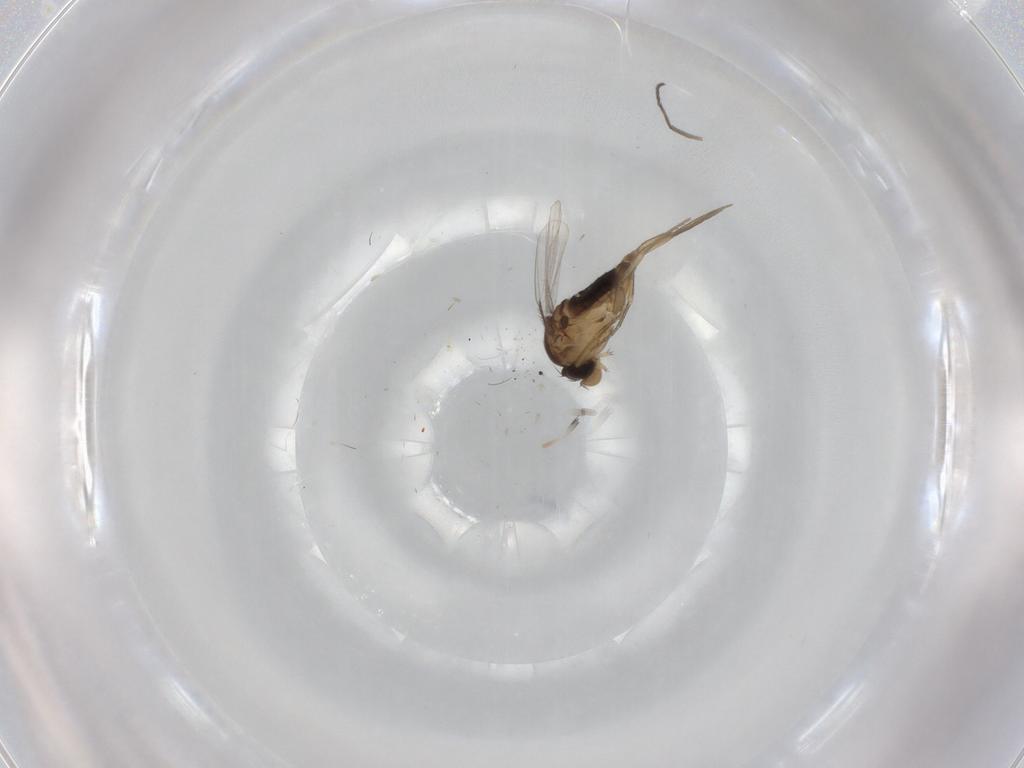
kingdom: Animalia
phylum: Arthropoda
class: Insecta
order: Diptera
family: Phoridae
